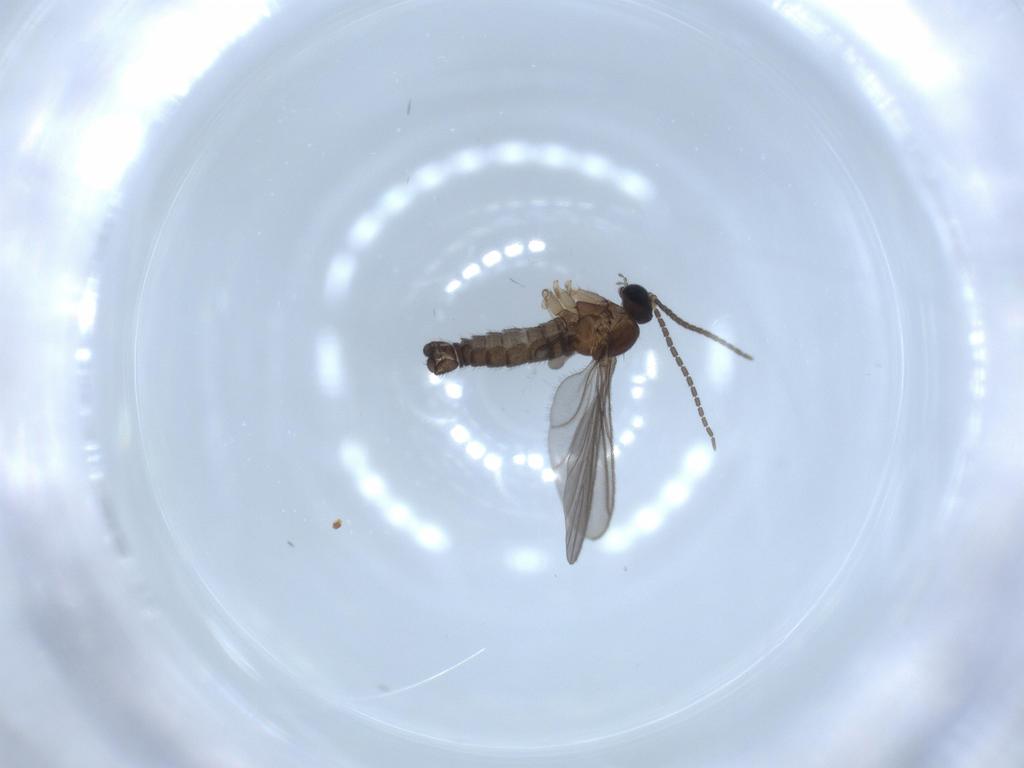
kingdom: Animalia
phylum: Arthropoda
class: Insecta
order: Diptera
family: Sciaridae
